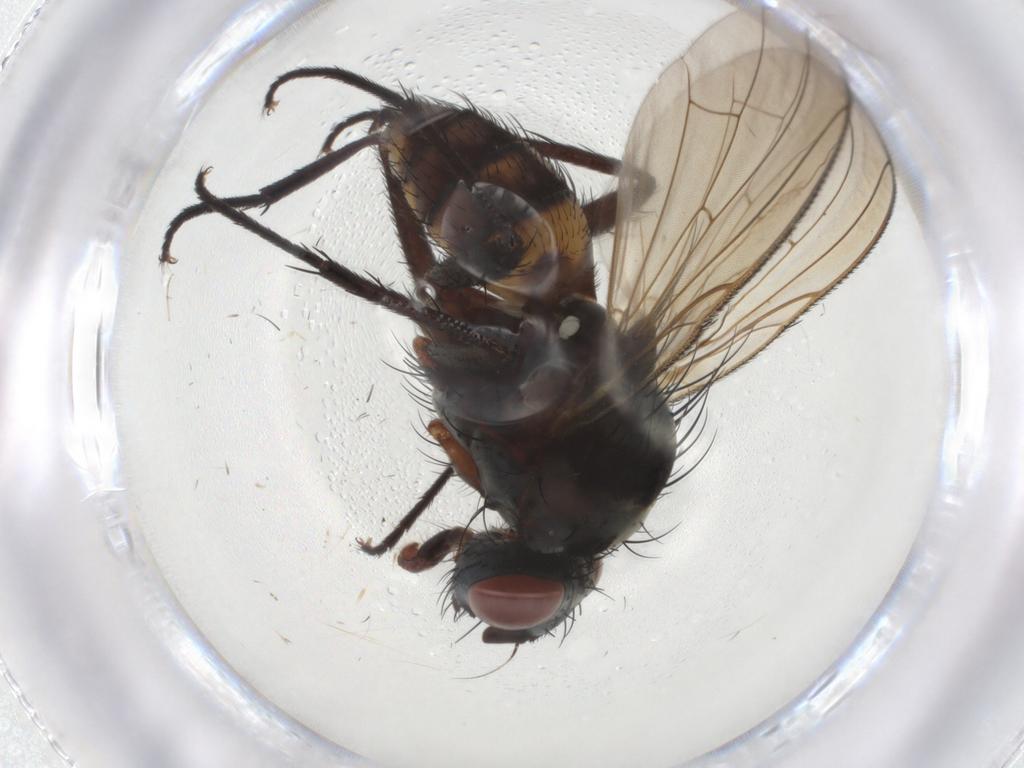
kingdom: Animalia
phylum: Arthropoda
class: Insecta
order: Diptera
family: Anthomyiidae
